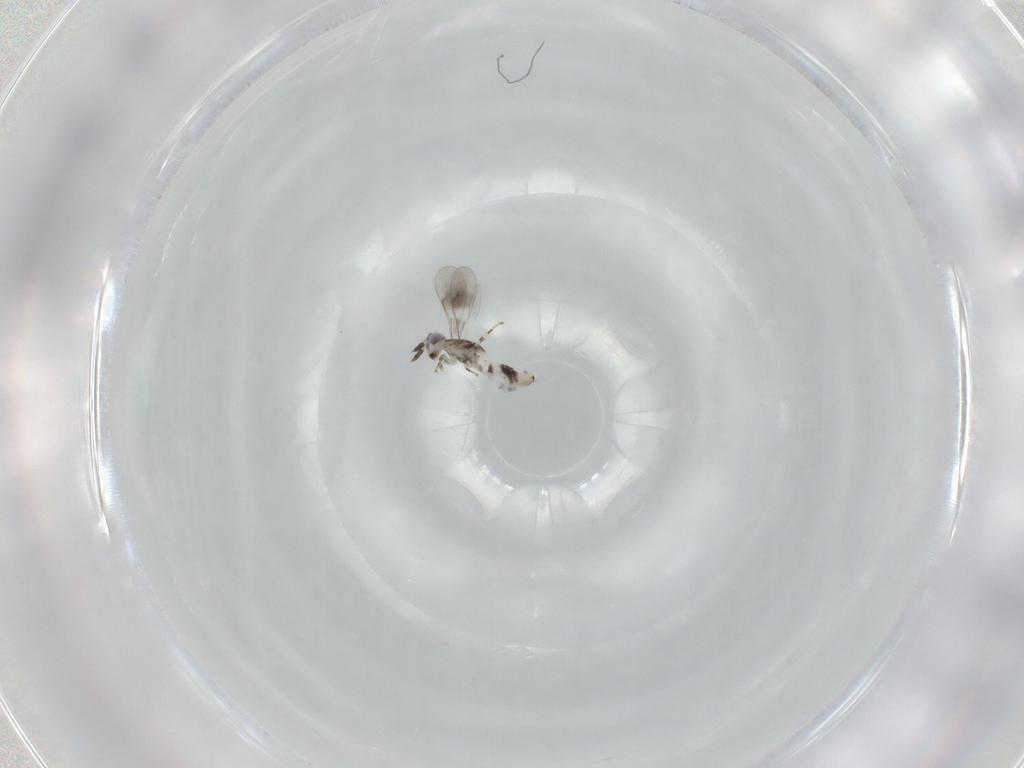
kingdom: Animalia
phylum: Arthropoda
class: Insecta
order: Hymenoptera
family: Aphelinidae
